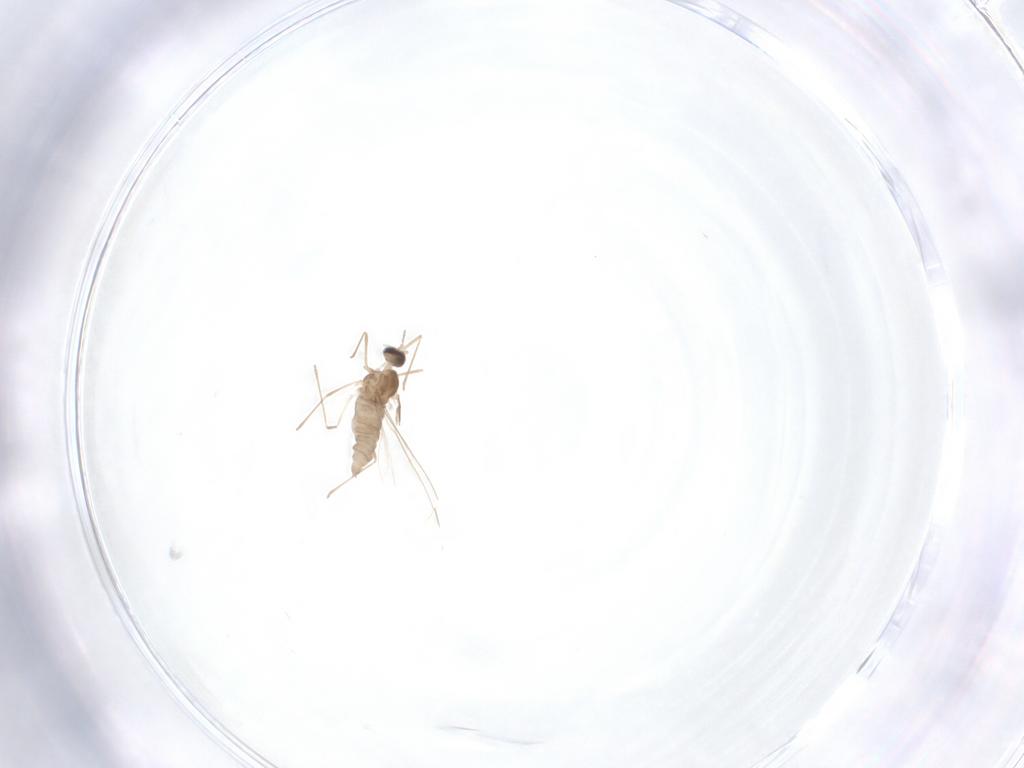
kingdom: Animalia
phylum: Arthropoda
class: Insecta
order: Diptera
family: Cecidomyiidae
